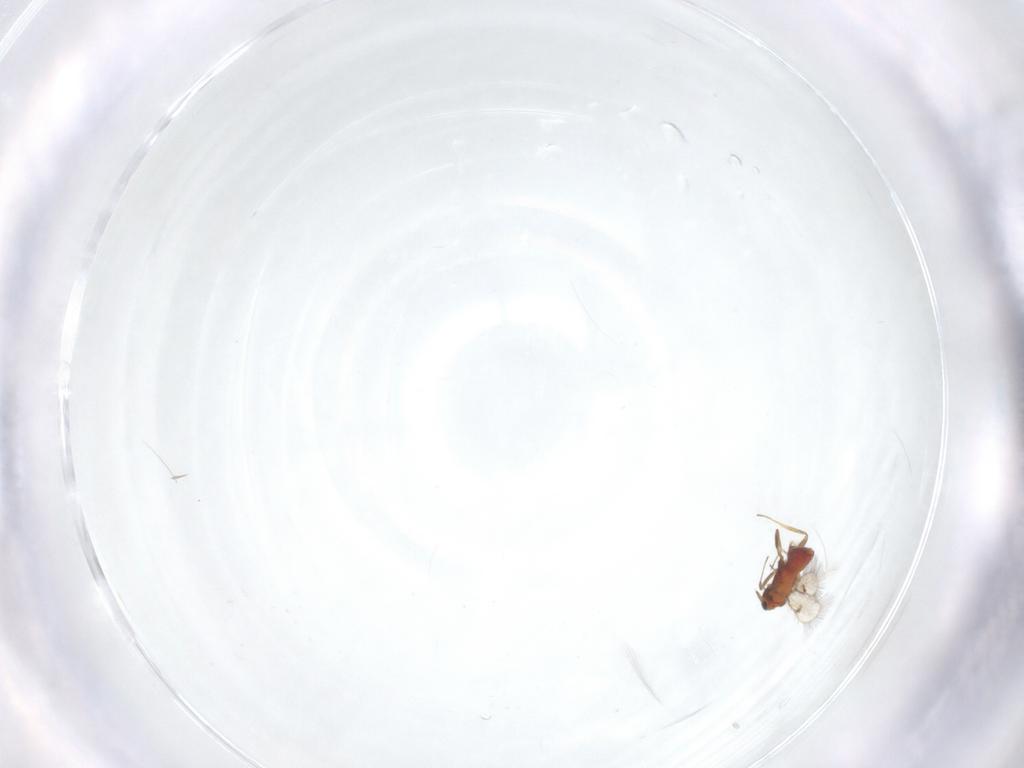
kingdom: Animalia
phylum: Arthropoda
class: Insecta
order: Hymenoptera
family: Trichogrammatidae
